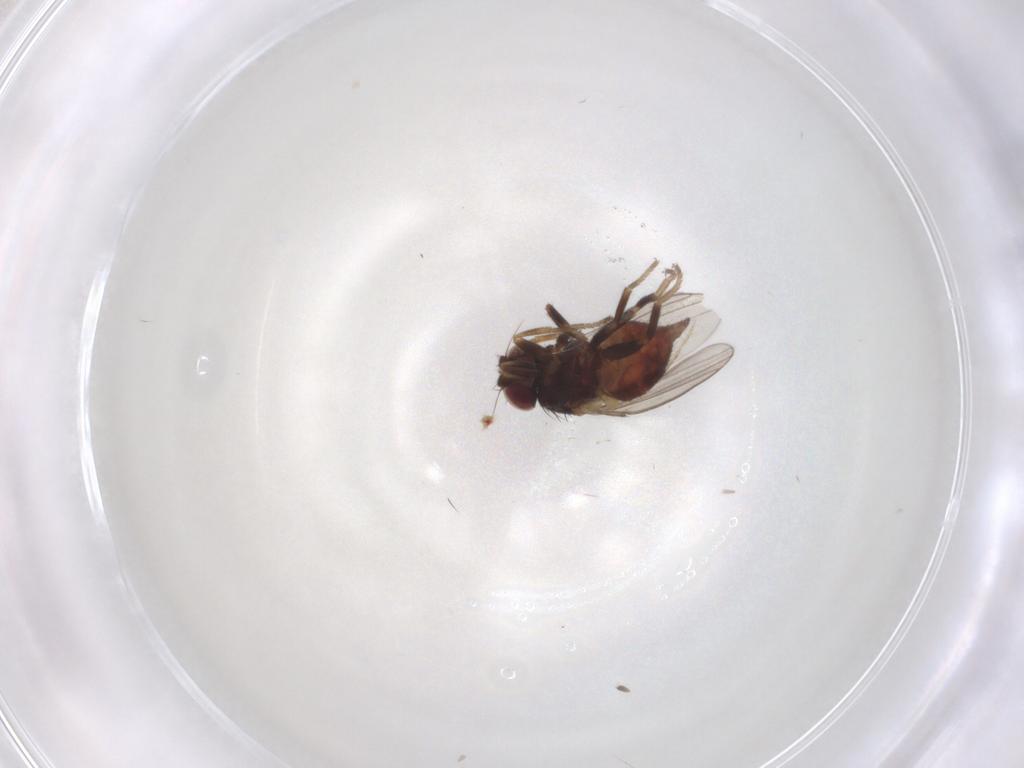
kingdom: Animalia
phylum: Arthropoda
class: Insecta
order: Diptera
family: Milichiidae
